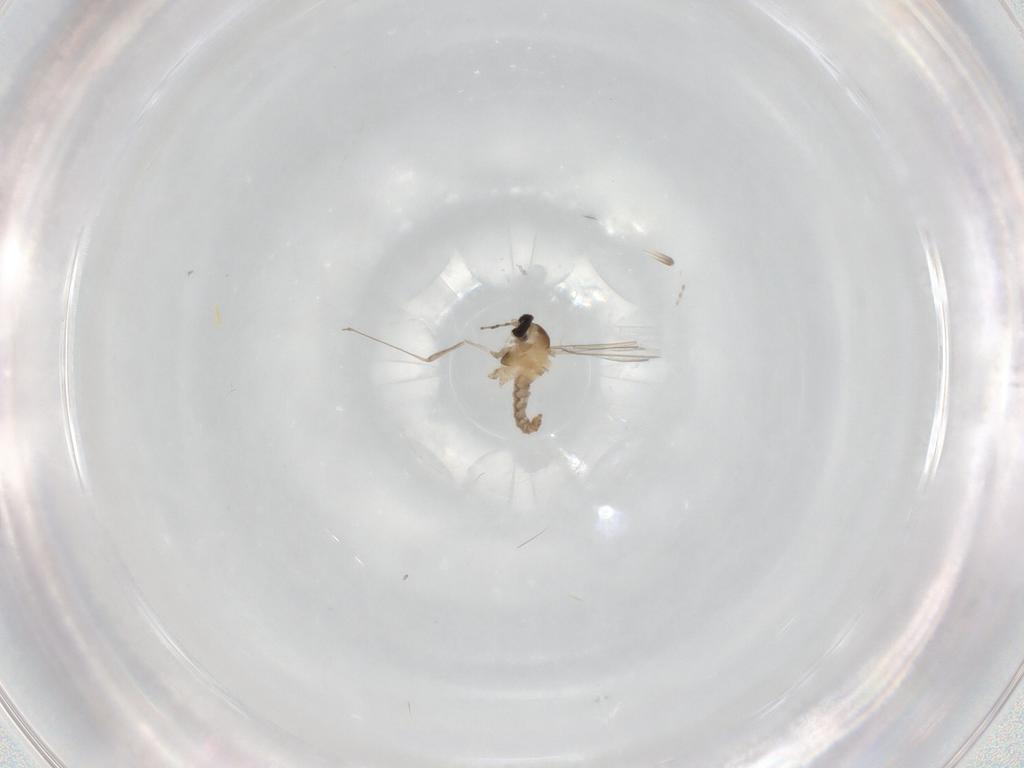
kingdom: Animalia
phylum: Arthropoda
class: Insecta
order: Diptera
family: Cecidomyiidae
